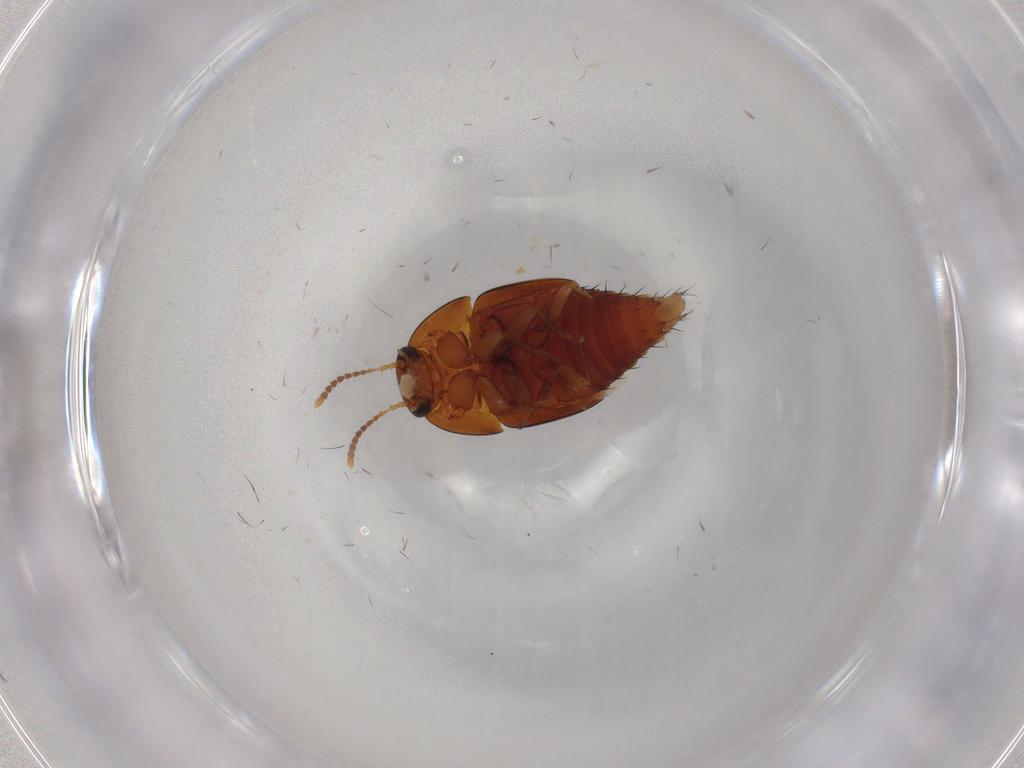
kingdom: Animalia
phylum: Arthropoda
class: Insecta
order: Coleoptera
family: Staphylinidae
